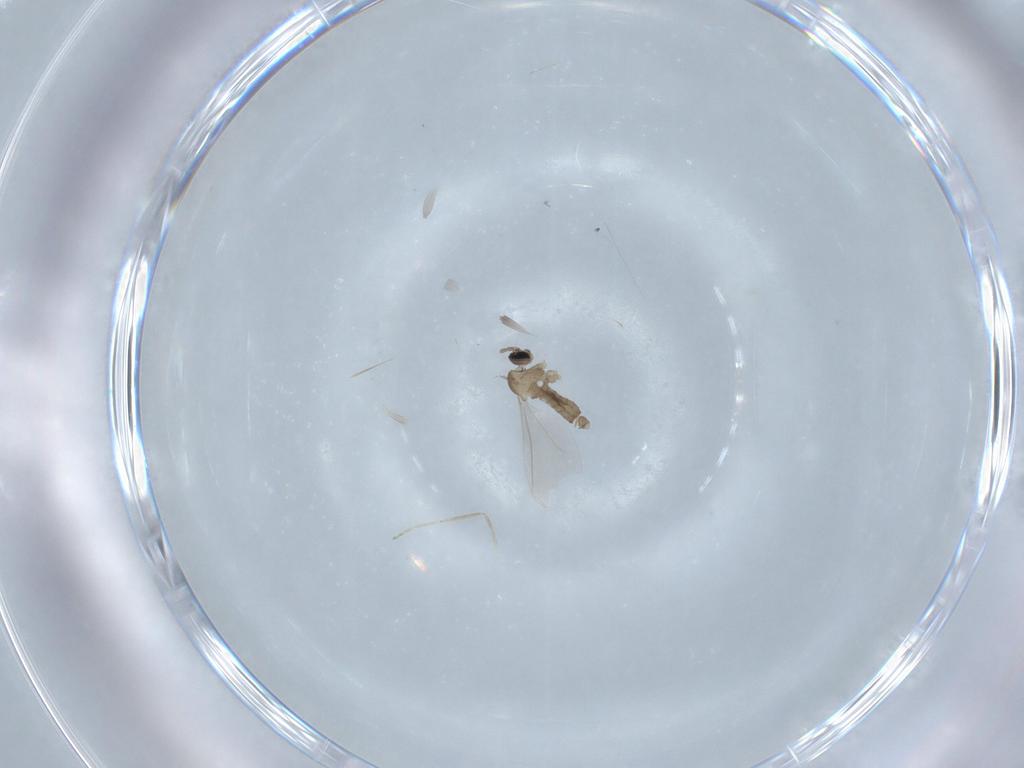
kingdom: Animalia
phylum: Arthropoda
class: Insecta
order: Diptera
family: Cecidomyiidae
